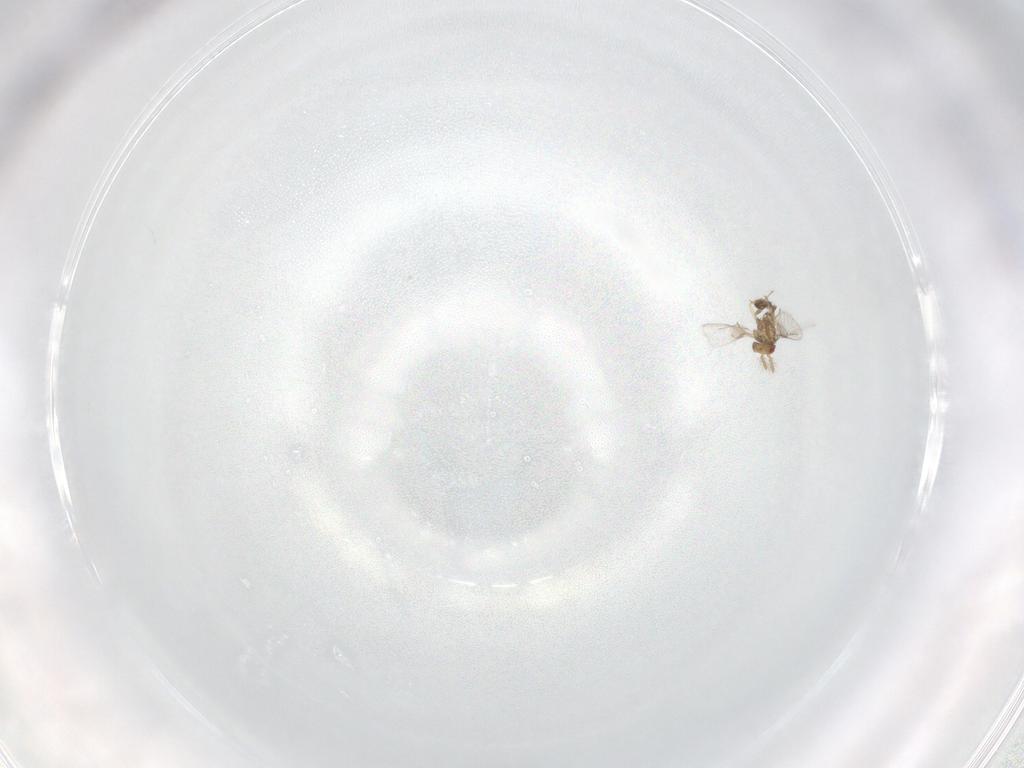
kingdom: Animalia
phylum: Arthropoda
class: Insecta
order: Hymenoptera
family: Trichogrammatidae
